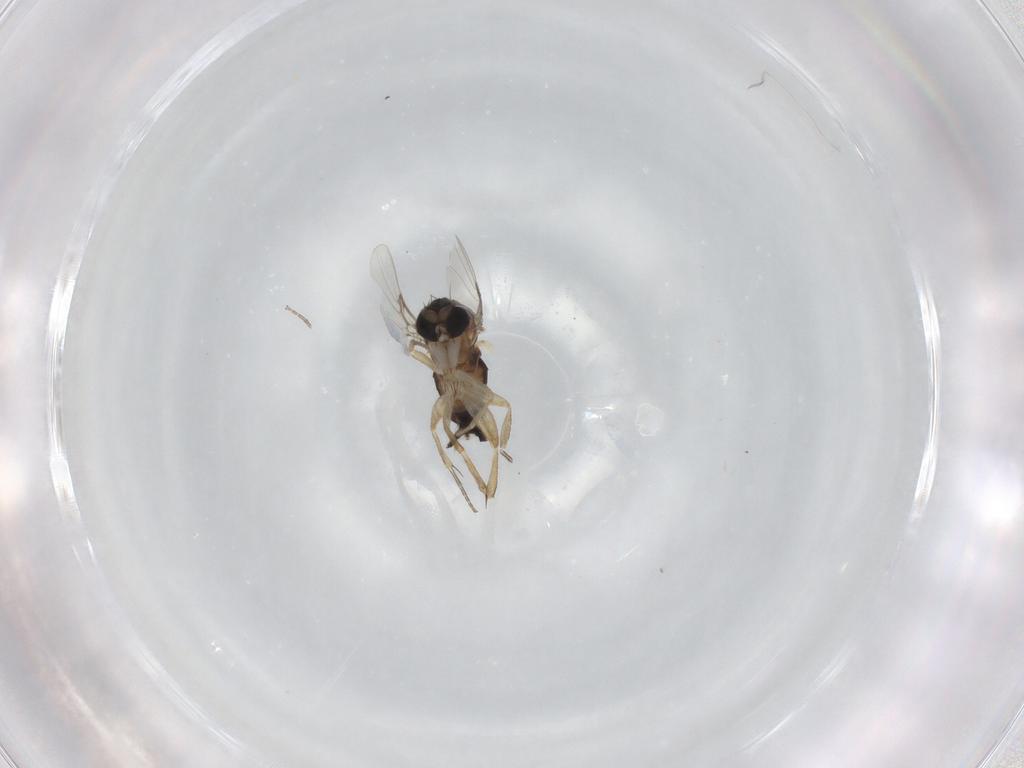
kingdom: Animalia
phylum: Arthropoda
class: Insecta
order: Diptera
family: Phoridae
